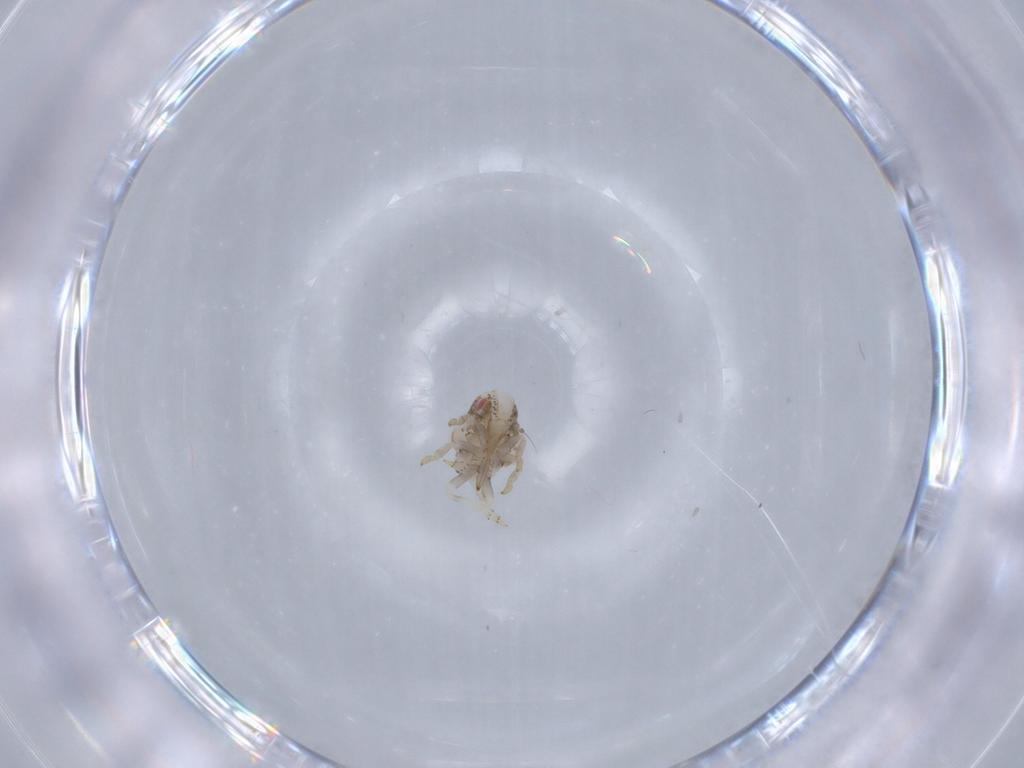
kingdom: Animalia
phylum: Arthropoda
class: Insecta
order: Hemiptera
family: Acanaloniidae
